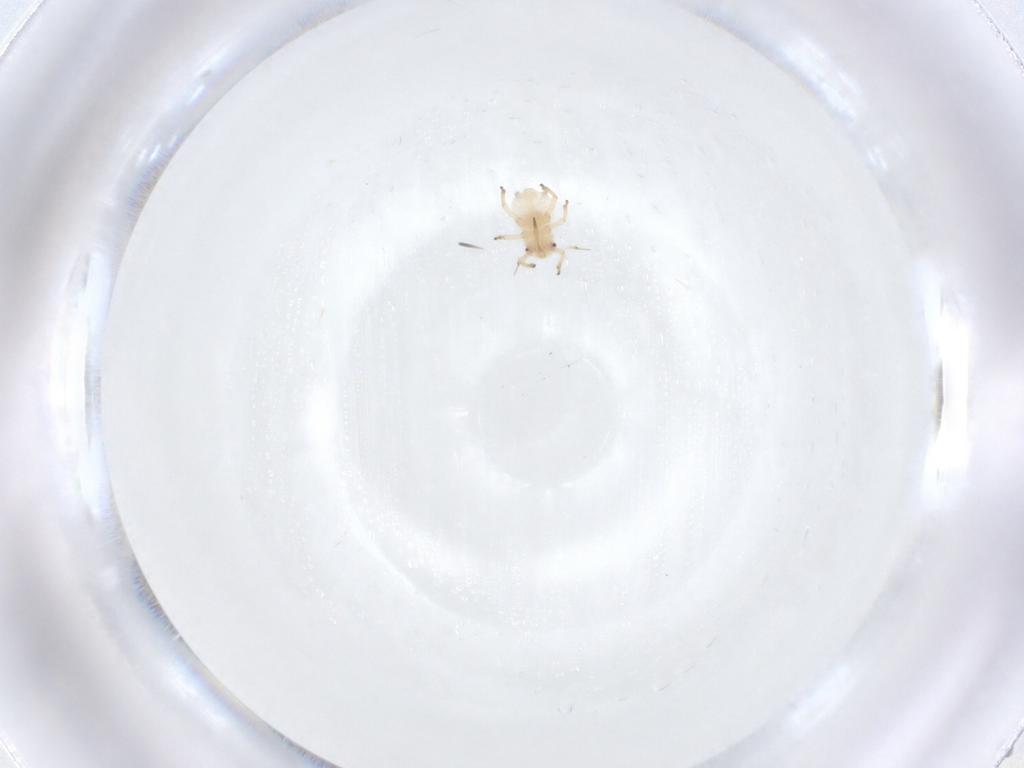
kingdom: Animalia
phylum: Arthropoda
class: Insecta
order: Hemiptera
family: Aphididae
